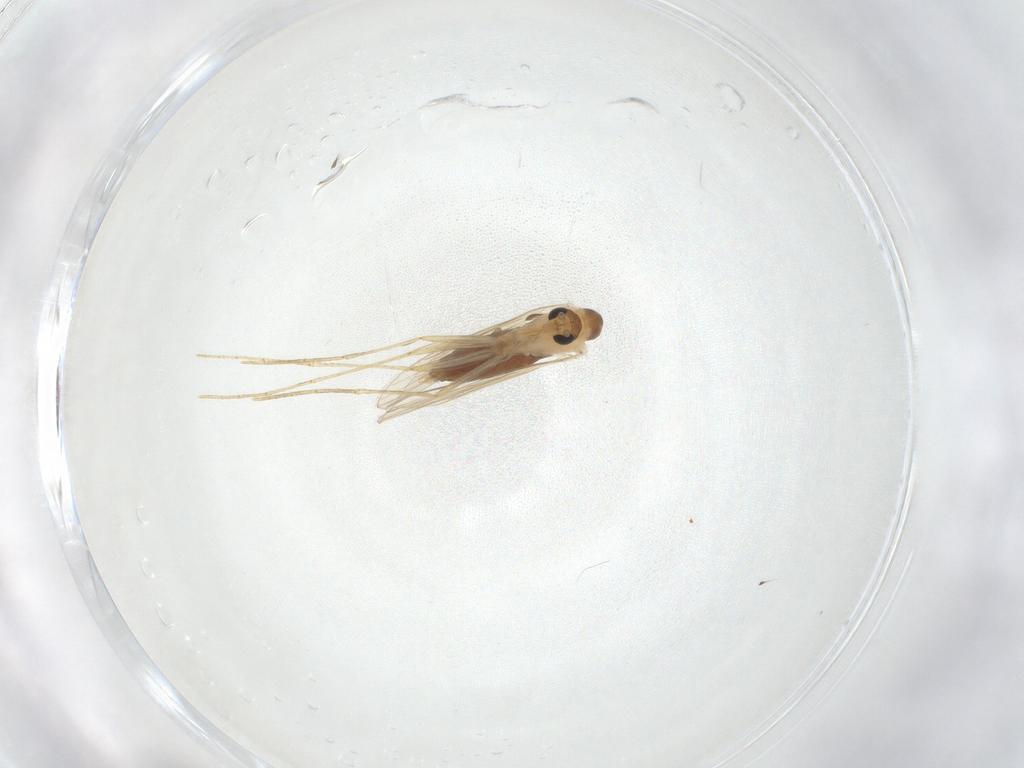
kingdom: Animalia
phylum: Arthropoda
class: Insecta
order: Diptera
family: Psychodidae
